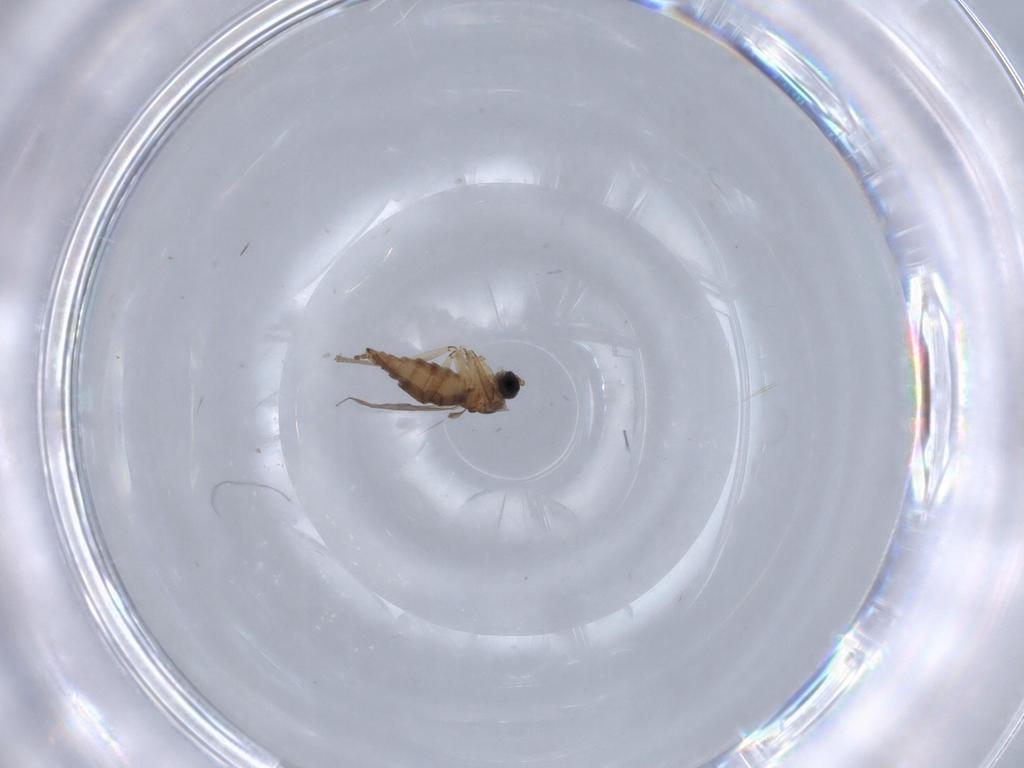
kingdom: Animalia
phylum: Arthropoda
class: Insecta
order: Diptera
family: Sciaridae
